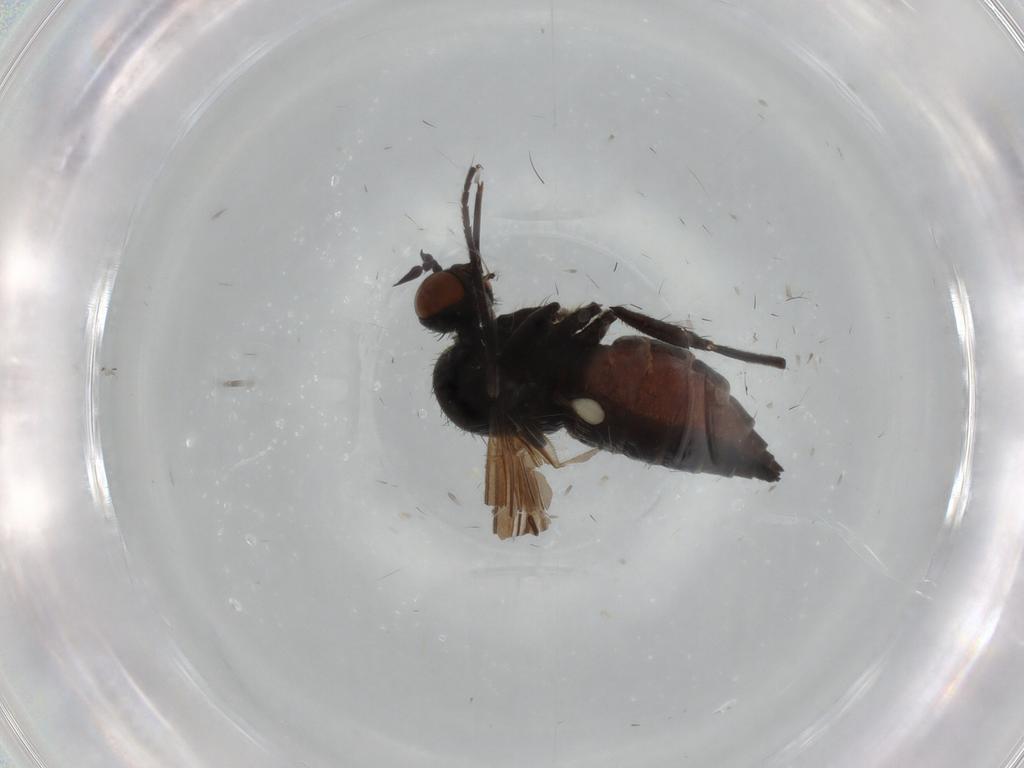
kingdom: Animalia
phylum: Arthropoda
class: Insecta
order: Diptera
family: Empididae
